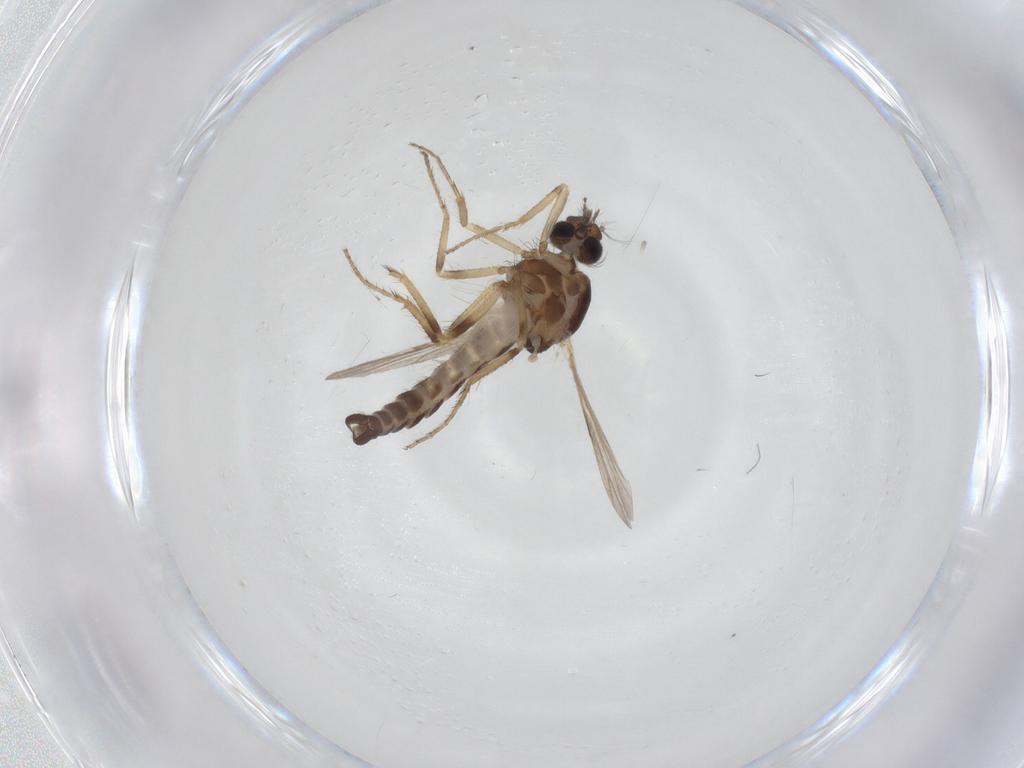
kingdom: Animalia
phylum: Arthropoda
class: Insecta
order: Diptera
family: Ceratopogonidae
